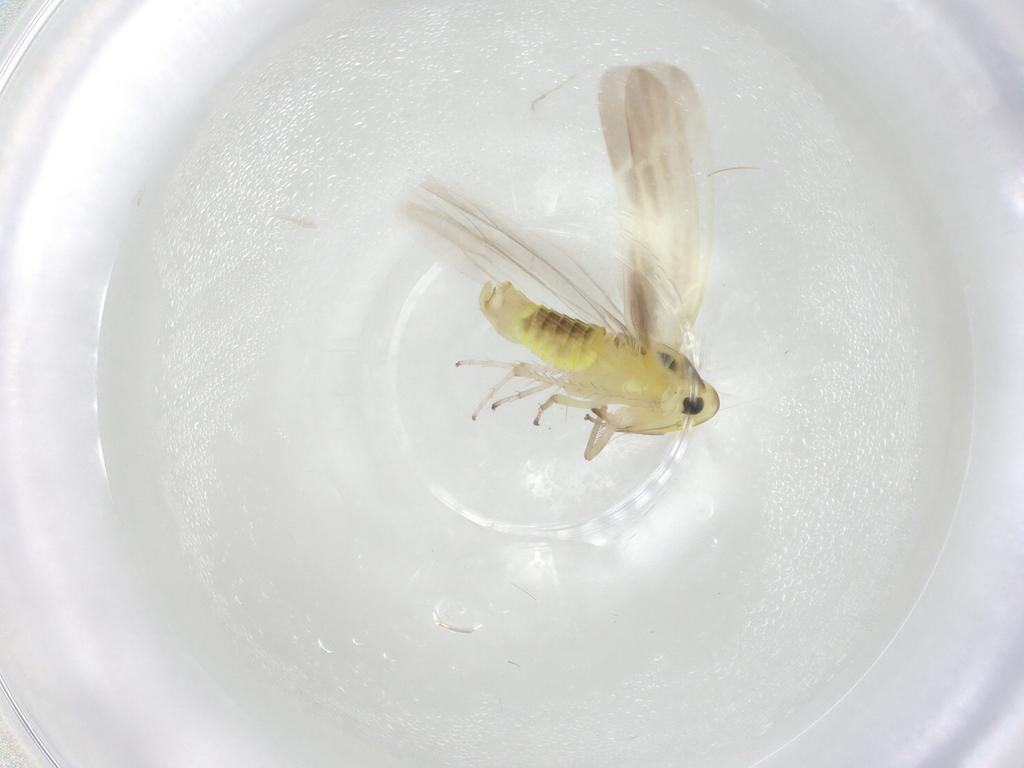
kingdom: Animalia
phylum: Arthropoda
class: Insecta
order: Hemiptera
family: Cicadellidae
